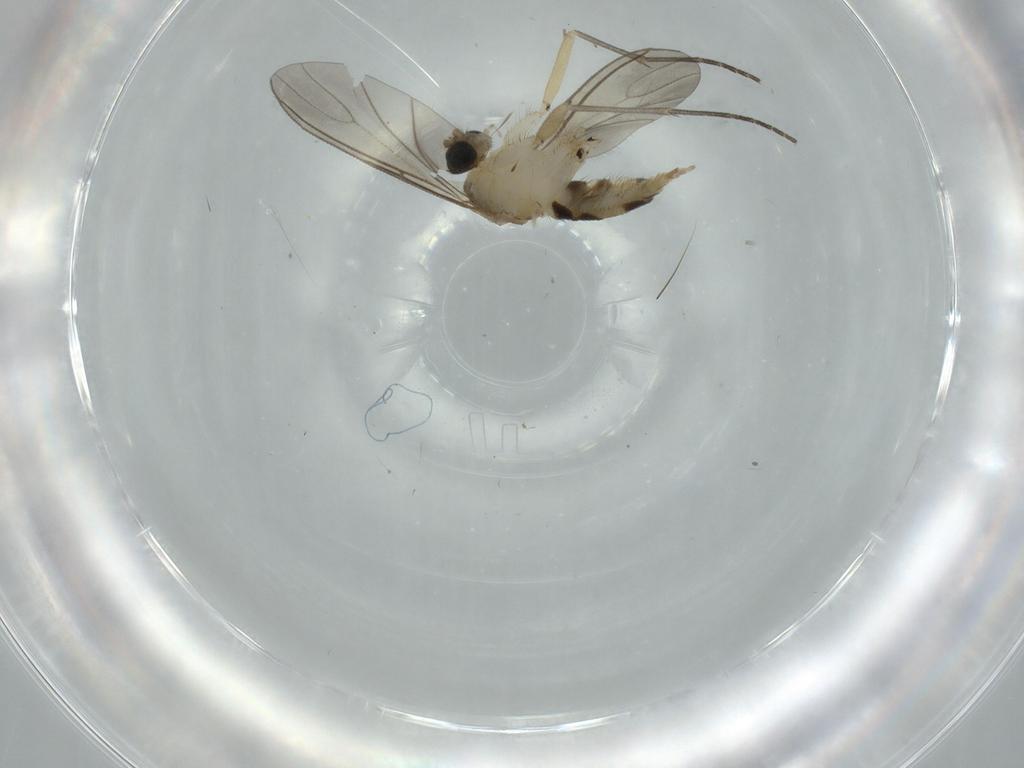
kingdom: Animalia
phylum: Arthropoda
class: Insecta
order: Diptera
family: Sciaridae
